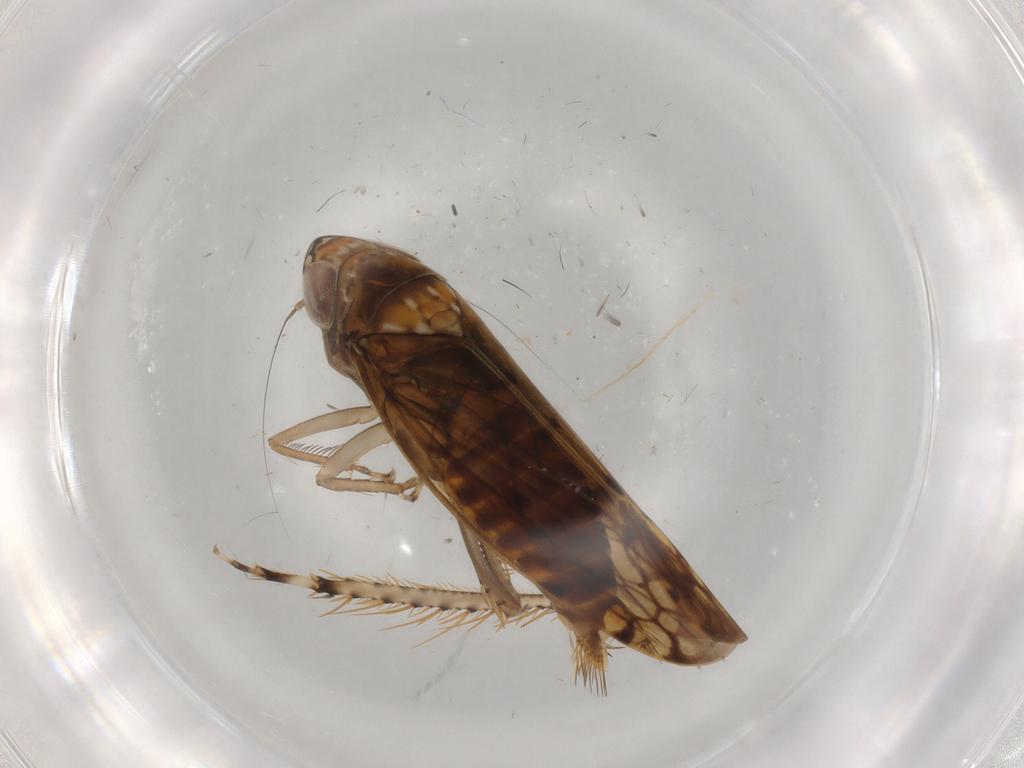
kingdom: Animalia
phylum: Arthropoda
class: Insecta
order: Hemiptera
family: Cicadellidae
